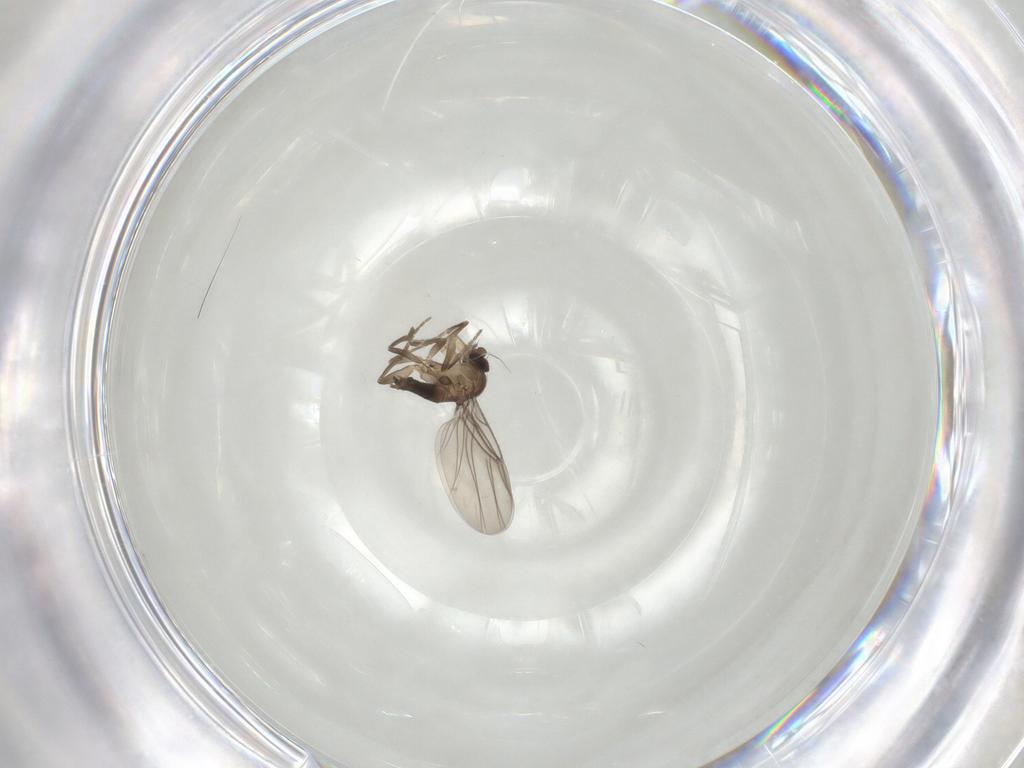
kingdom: Animalia
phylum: Arthropoda
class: Insecta
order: Diptera
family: Phoridae
